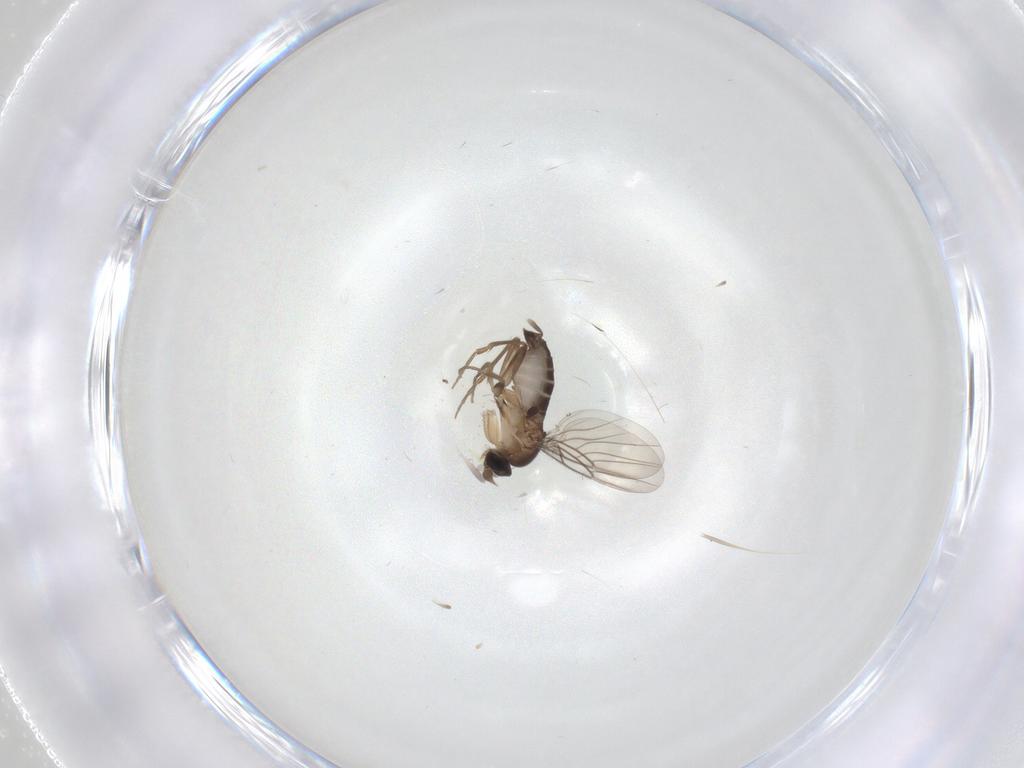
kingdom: Animalia
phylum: Arthropoda
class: Insecta
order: Diptera
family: Phoridae
